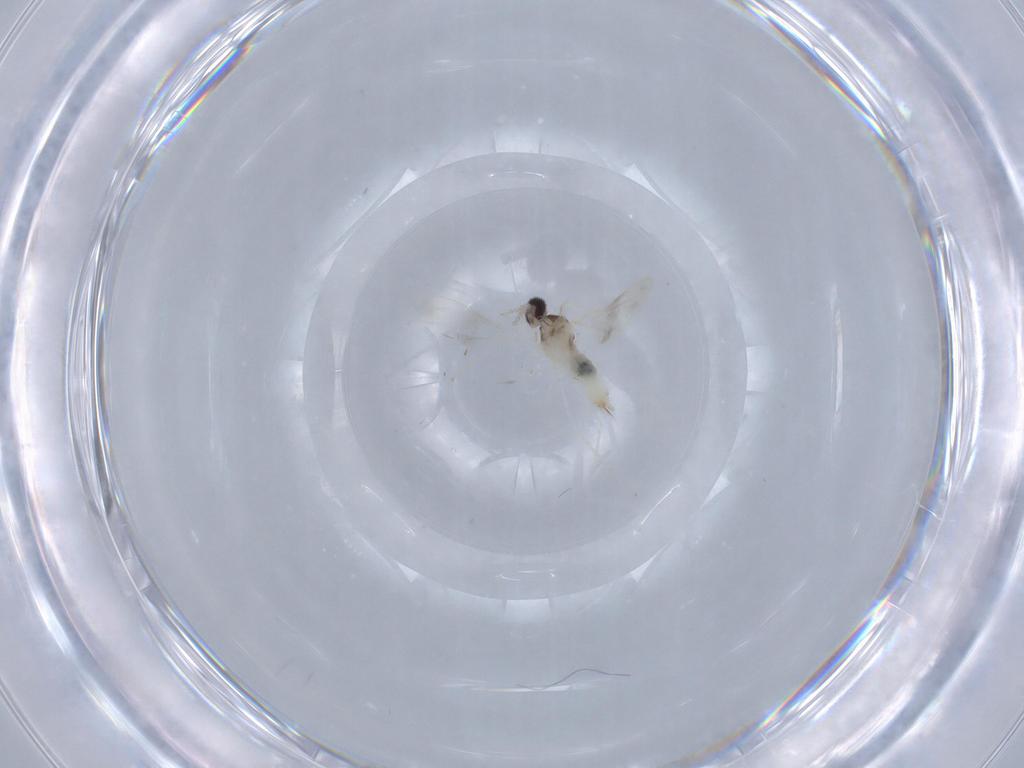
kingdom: Animalia
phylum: Arthropoda
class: Insecta
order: Diptera
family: Cecidomyiidae
